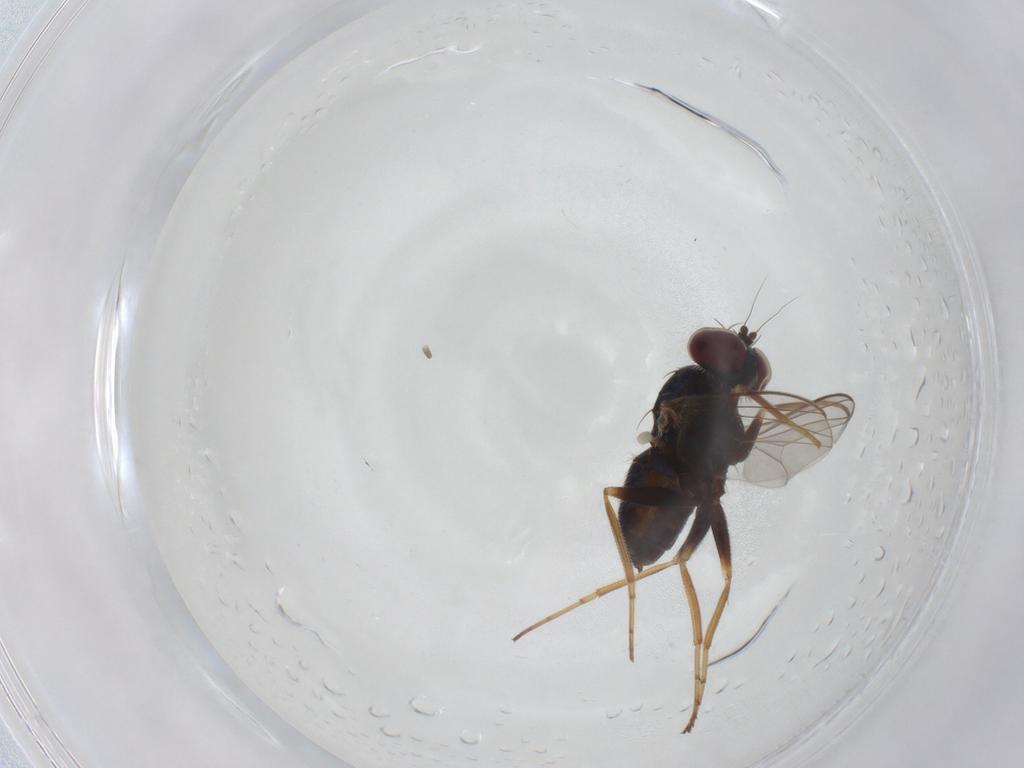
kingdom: Animalia
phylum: Arthropoda
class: Insecta
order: Diptera
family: Dolichopodidae
